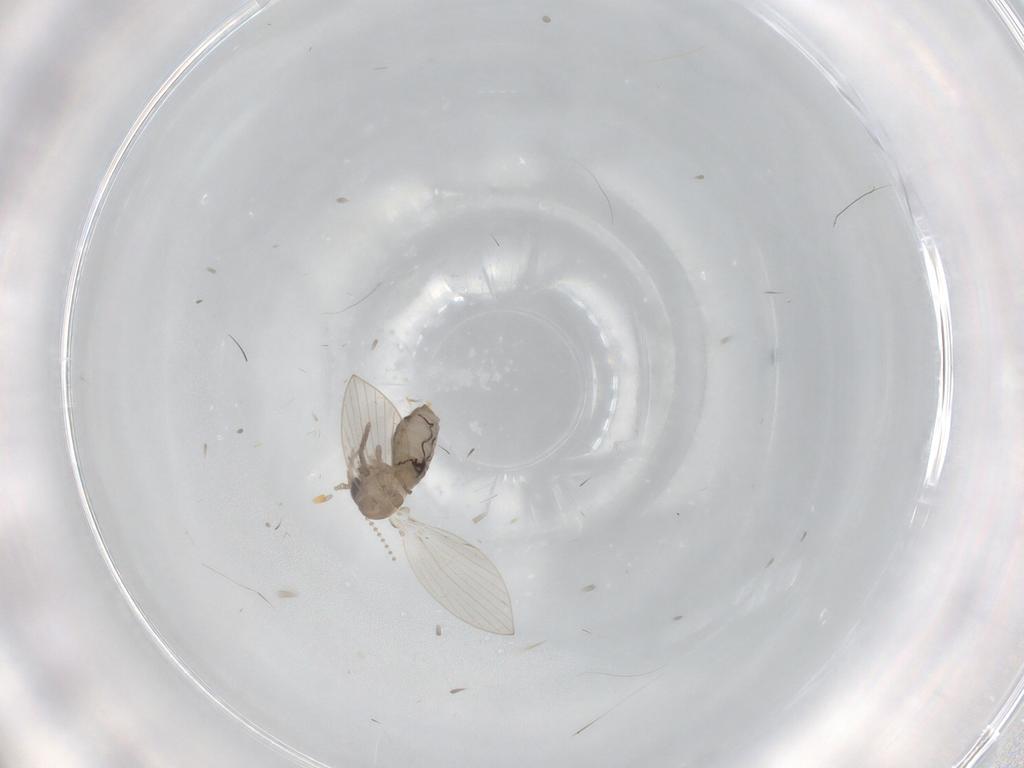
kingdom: Animalia
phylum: Arthropoda
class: Insecta
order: Diptera
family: Psychodidae
